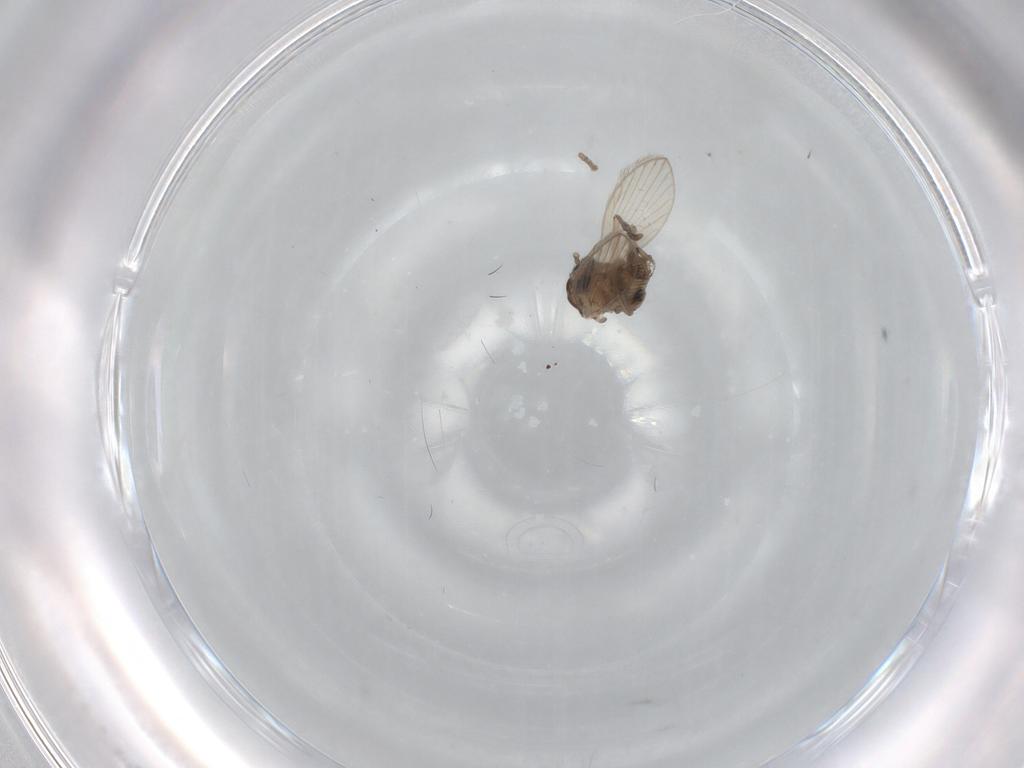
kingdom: Animalia
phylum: Arthropoda
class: Insecta
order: Diptera
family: Psychodidae
